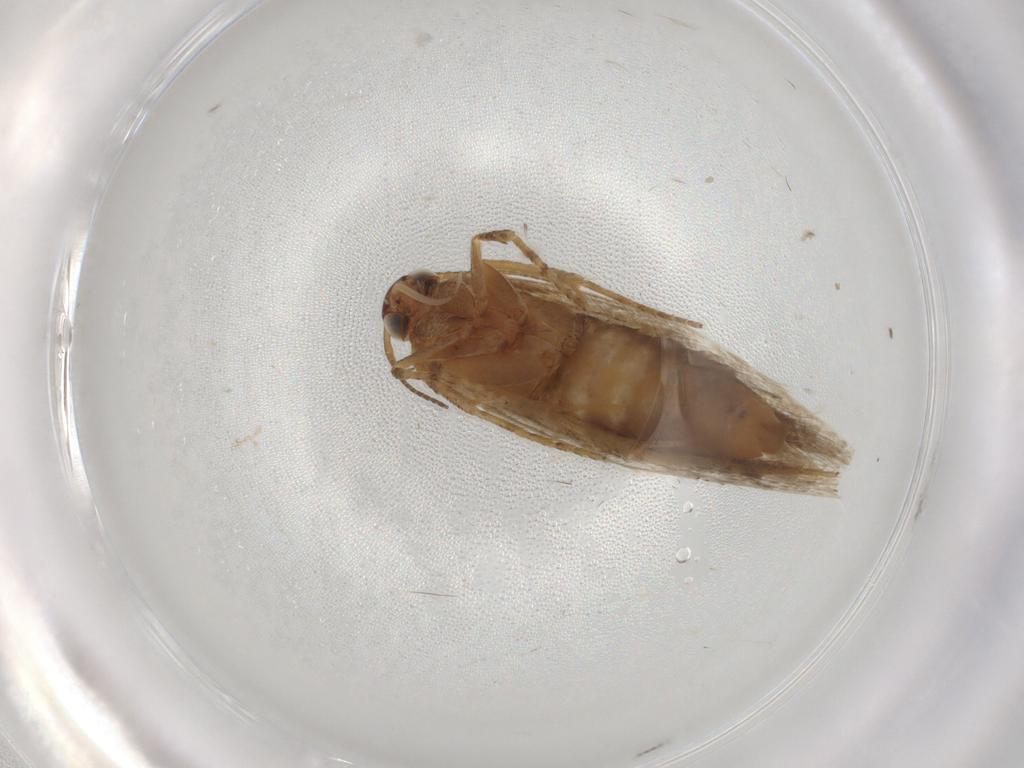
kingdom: Animalia
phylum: Arthropoda
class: Insecta
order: Lepidoptera
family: Gelechiidae
